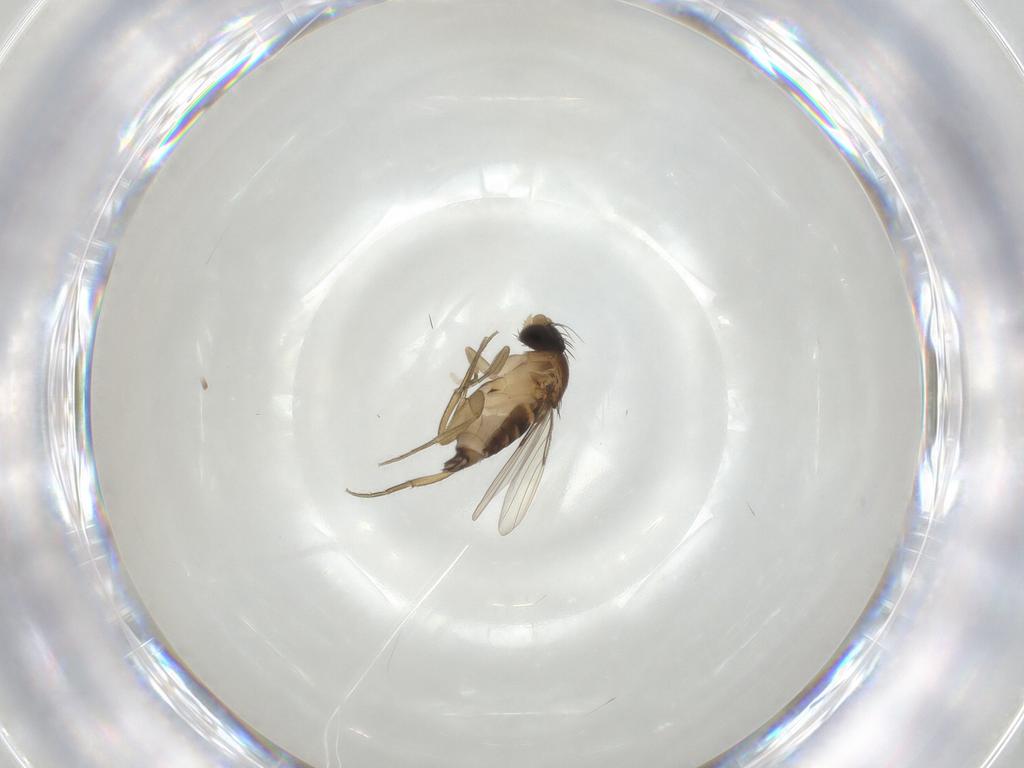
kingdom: Animalia
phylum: Arthropoda
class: Insecta
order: Diptera
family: Phoridae
